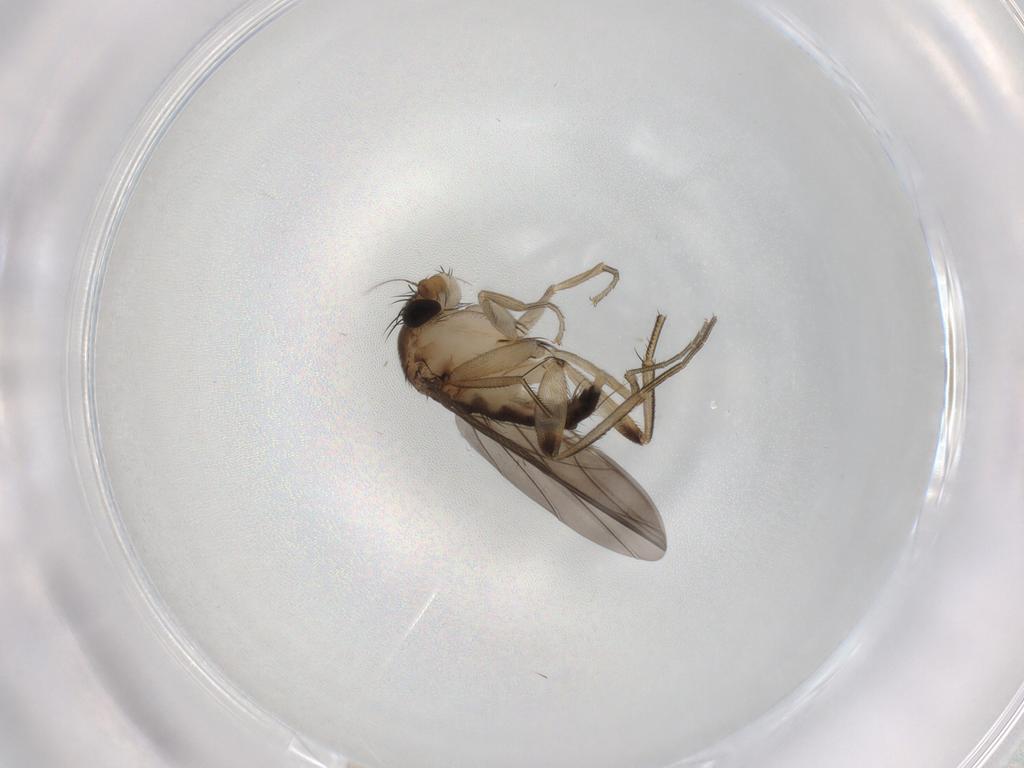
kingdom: Animalia
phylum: Arthropoda
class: Insecta
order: Diptera
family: Phoridae
